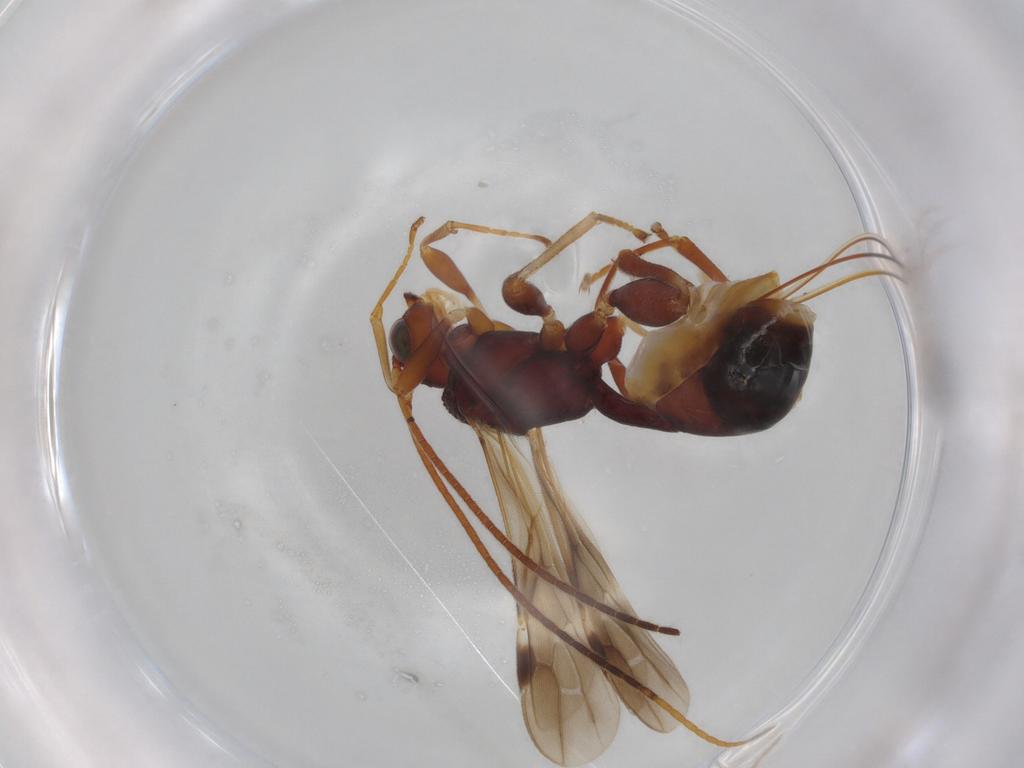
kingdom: Animalia
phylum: Arthropoda
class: Insecta
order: Hymenoptera
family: Braconidae
